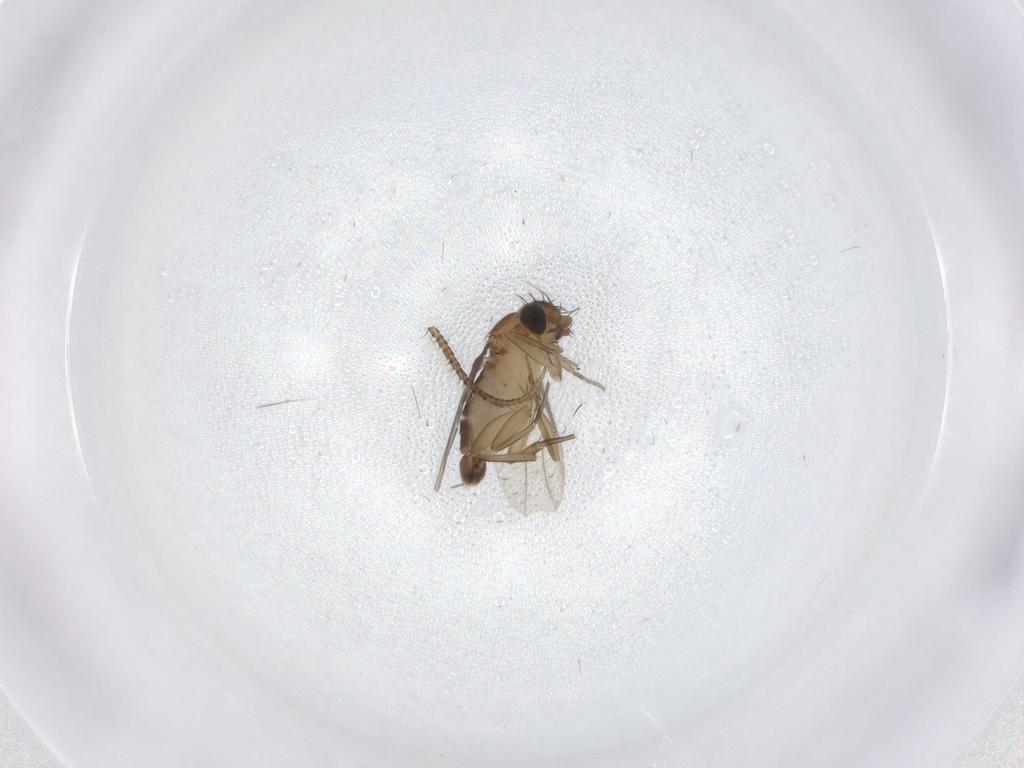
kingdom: Animalia
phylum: Arthropoda
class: Insecta
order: Diptera
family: Phoridae
